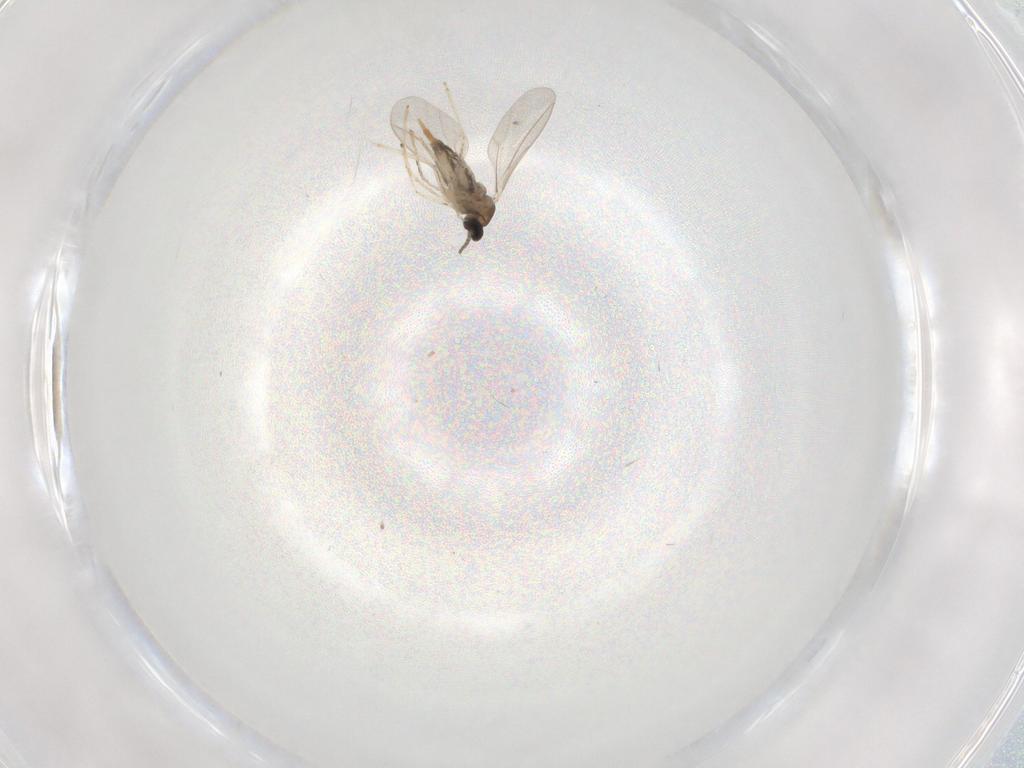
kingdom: Animalia
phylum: Arthropoda
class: Insecta
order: Diptera
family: Cecidomyiidae
